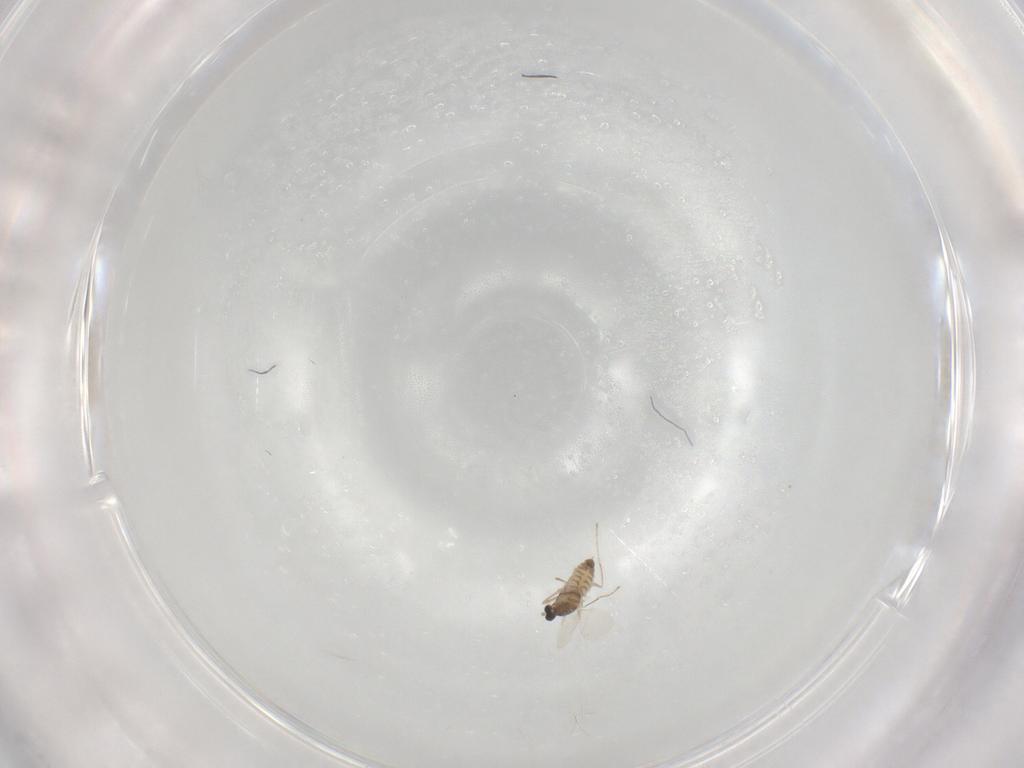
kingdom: Animalia
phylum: Arthropoda
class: Insecta
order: Diptera
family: Cecidomyiidae
